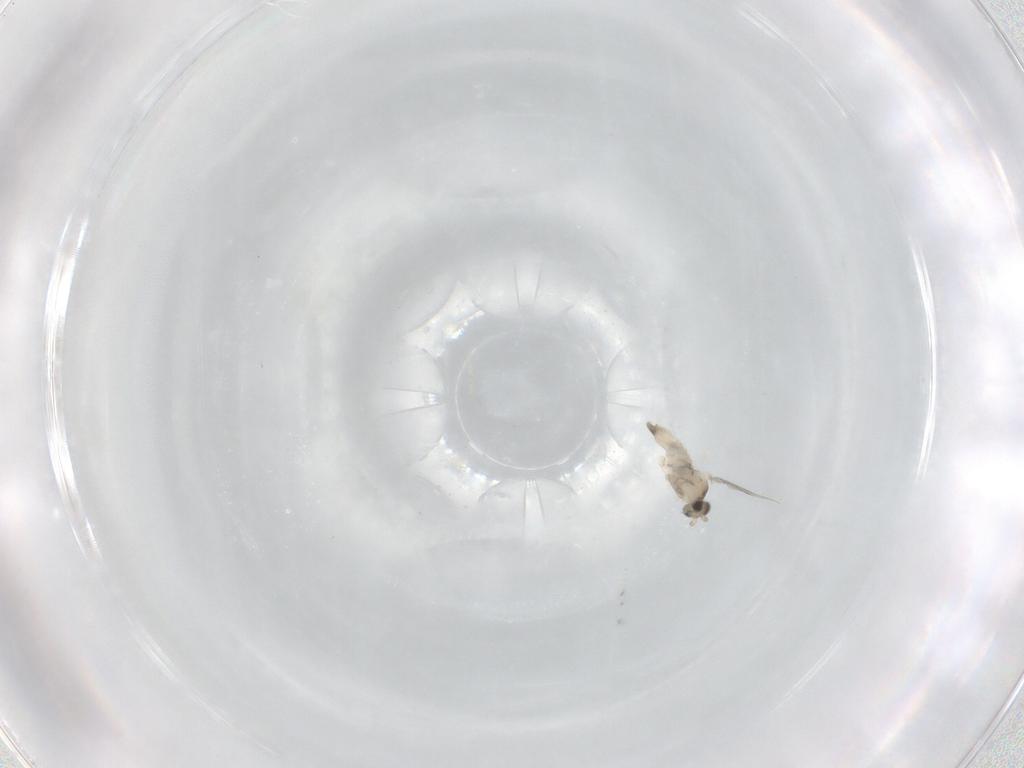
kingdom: Animalia
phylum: Arthropoda
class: Insecta
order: Diptera
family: Cecidomyiidae
